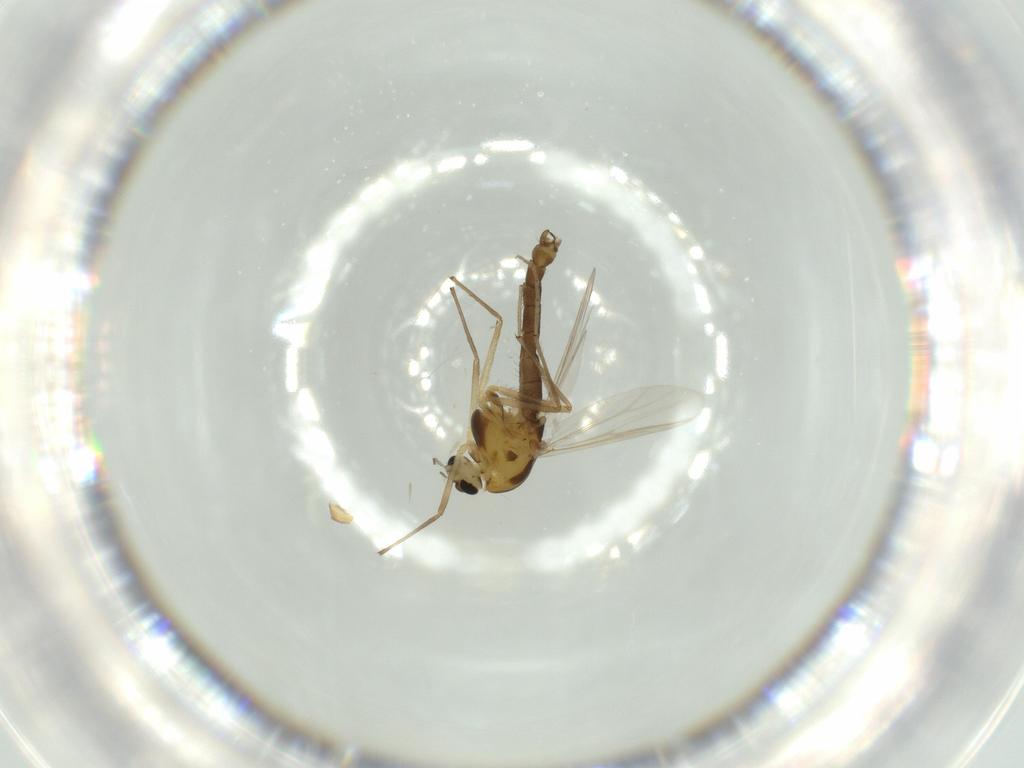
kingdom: Animalia
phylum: Arthropoda
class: Insecta
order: Diptera
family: Chironomidae
